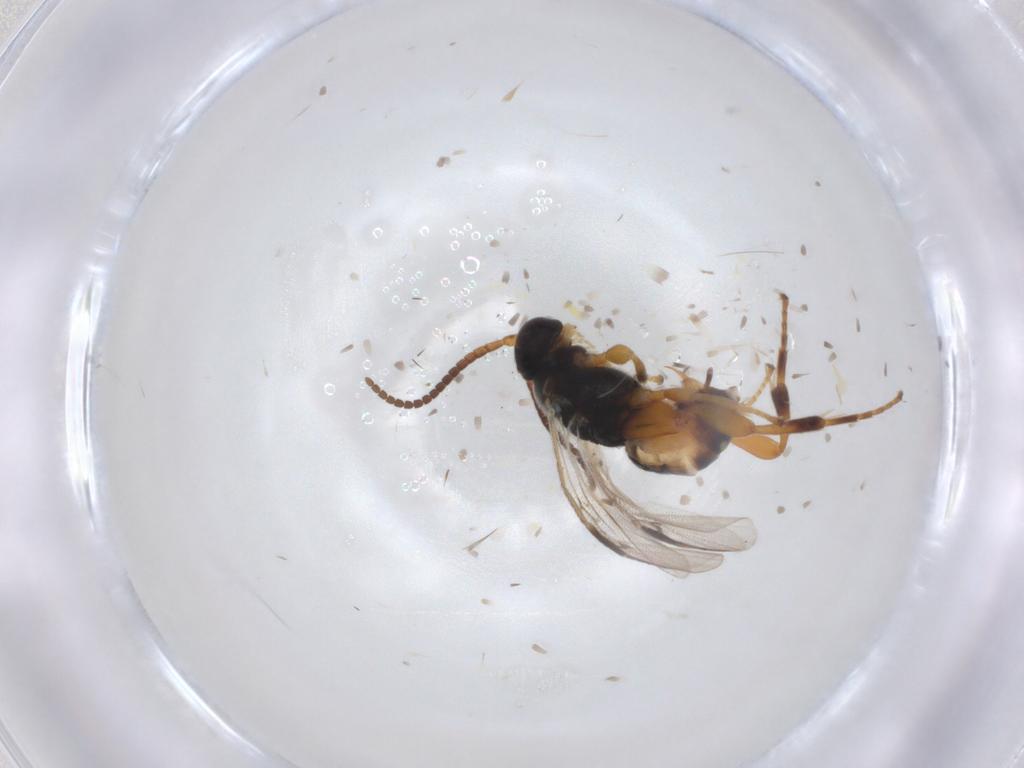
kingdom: Animalia
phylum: Arthropoda
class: Insecta
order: Hymenoptera
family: Braconidae
